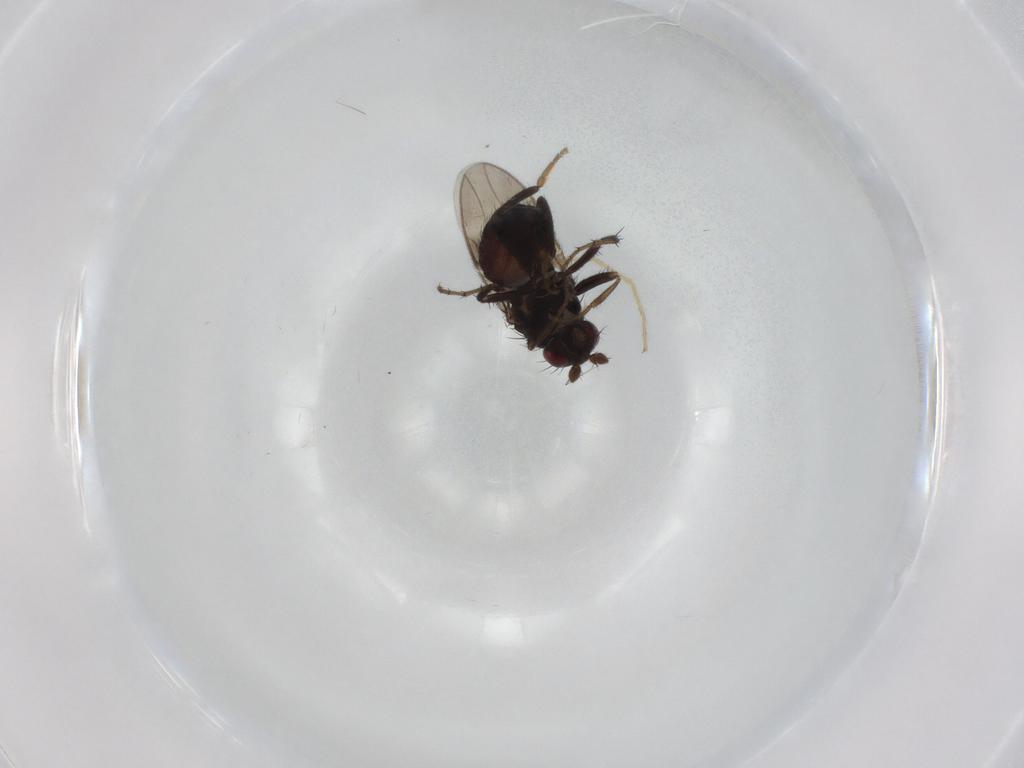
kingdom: Animalia
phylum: Arthropoda
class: Insecta
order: Diptera
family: Sphaeroceridae
